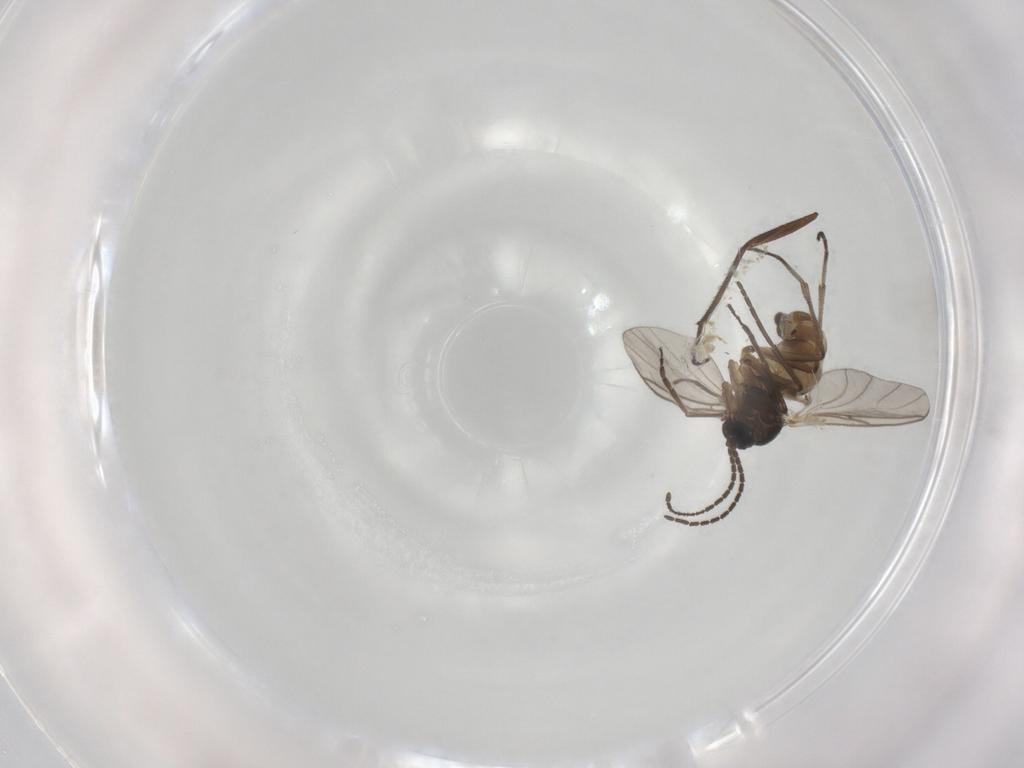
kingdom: Animalia
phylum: Arthropoda
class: Insecta
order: Diptera
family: Sciaridae
